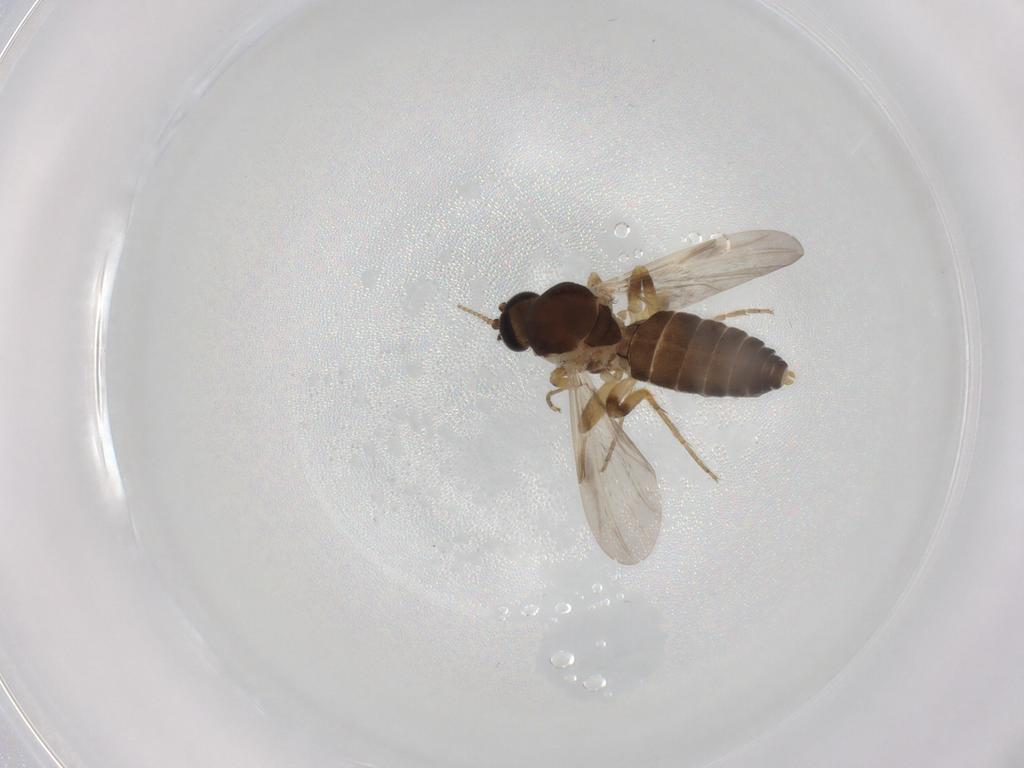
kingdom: Animalia
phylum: Arthropoda
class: Insecta
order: Diptera
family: Ceratopogonidae
